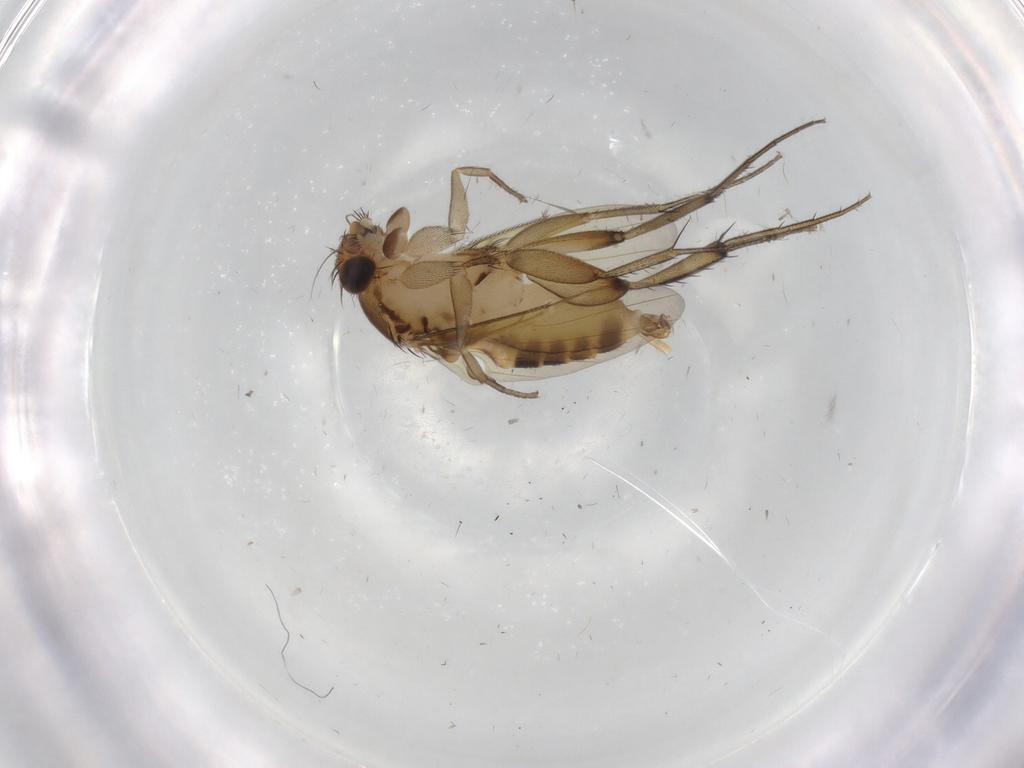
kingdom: Animalia
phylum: Arthropoda
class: Insecta
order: Diptera
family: Phoridae
